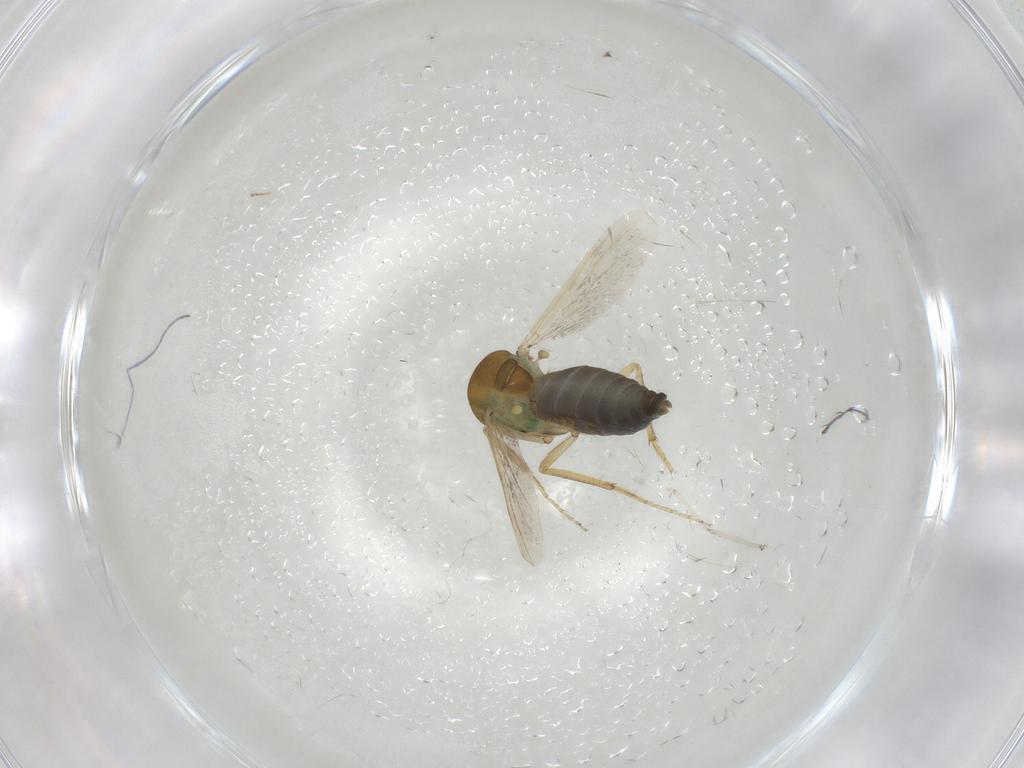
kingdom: Animalia
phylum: Arthropoda
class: Insecta
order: Diptera
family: Ceratopogonidae
